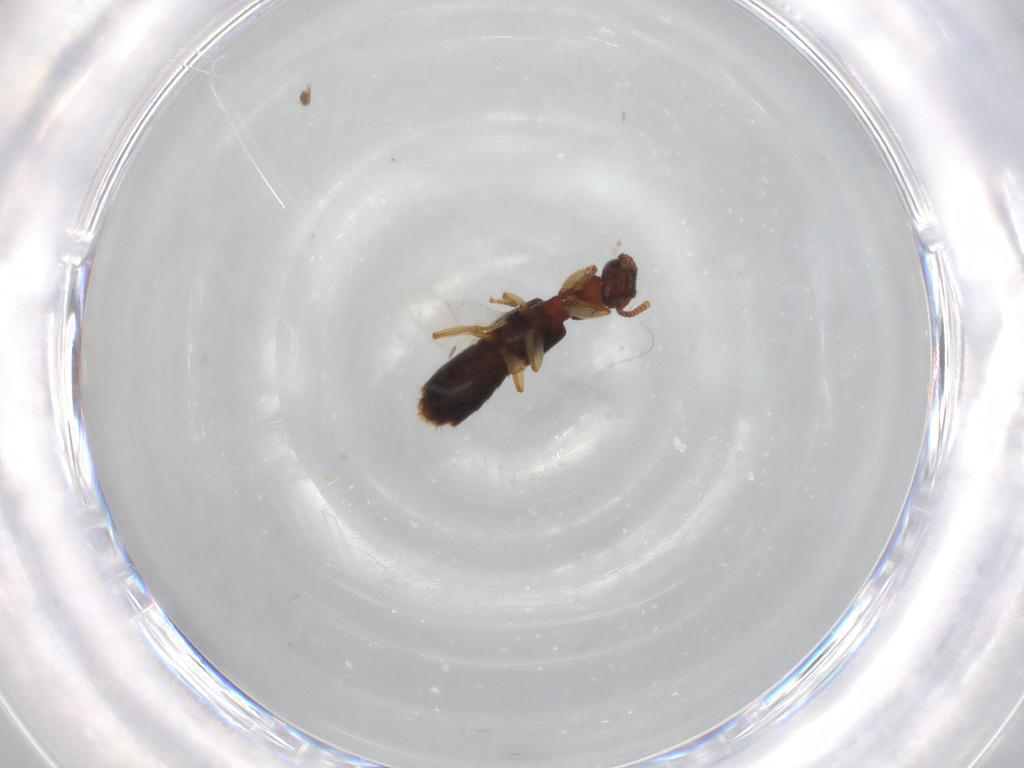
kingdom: Animalia
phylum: Arthropoda
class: Insecta
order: Coleoptera
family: Staphylinidae
